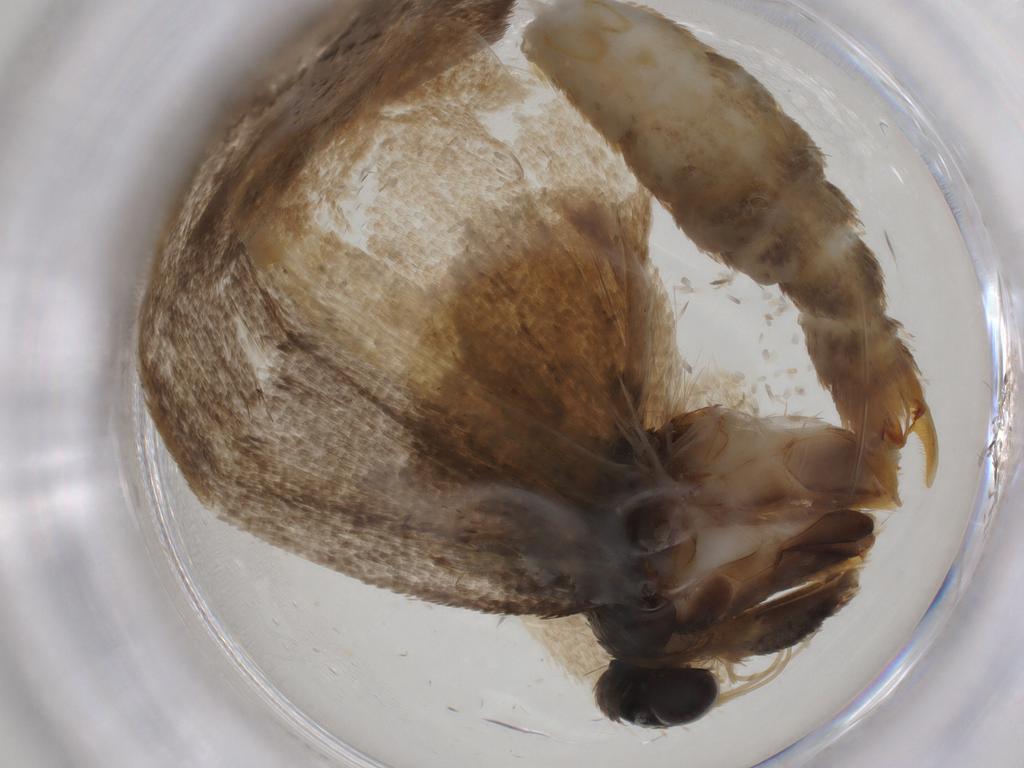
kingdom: Animalia
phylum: Arthropoda
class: Insecta
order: Lepidoptera
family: Oecophoridae
